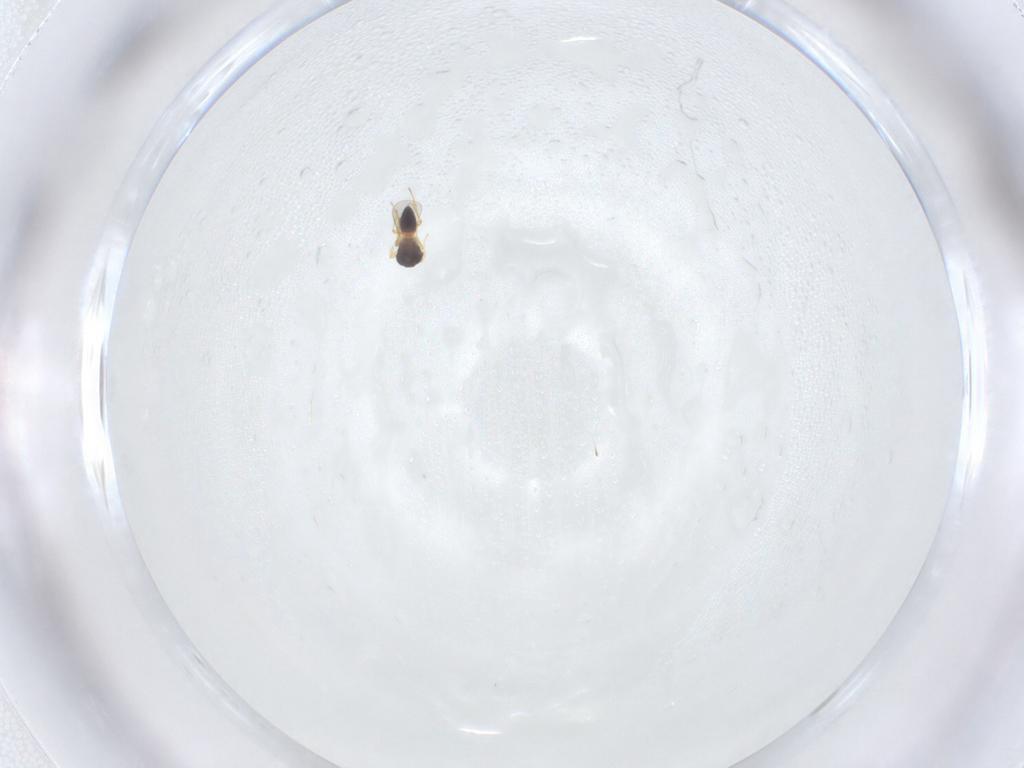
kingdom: Animalia
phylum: Arthropoda
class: Insecta
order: Hymenoptera
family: Platygastridae
